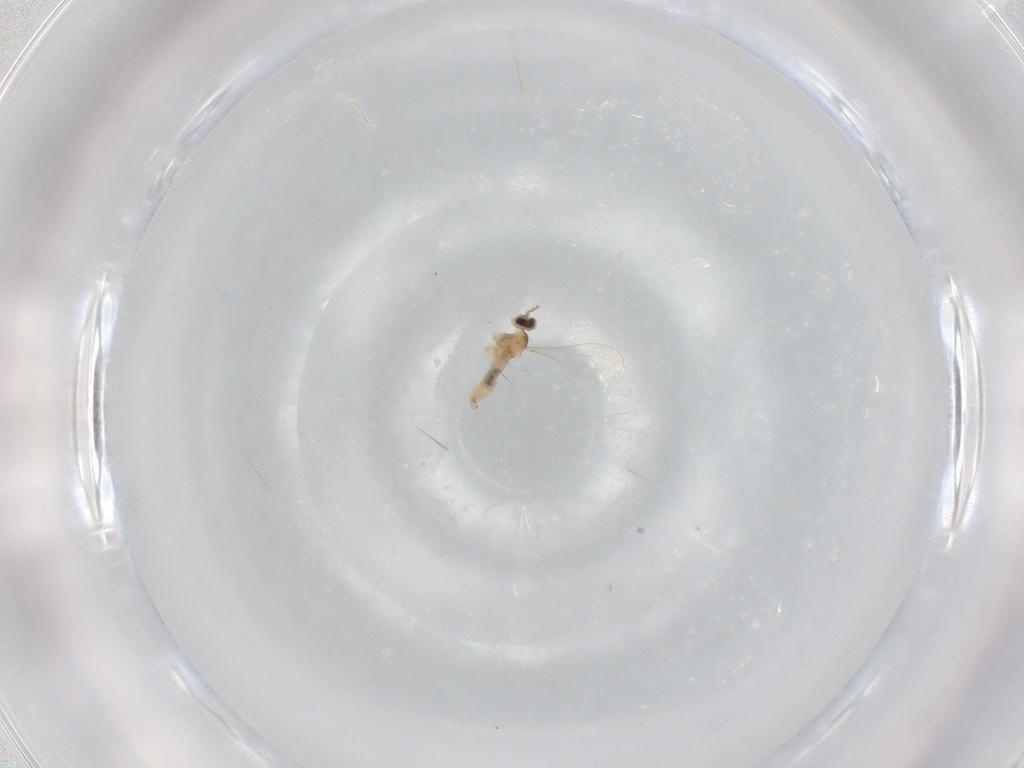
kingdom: Animalia
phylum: Arthropoda
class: Insecta
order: Diptera
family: Cecidomyiidae
